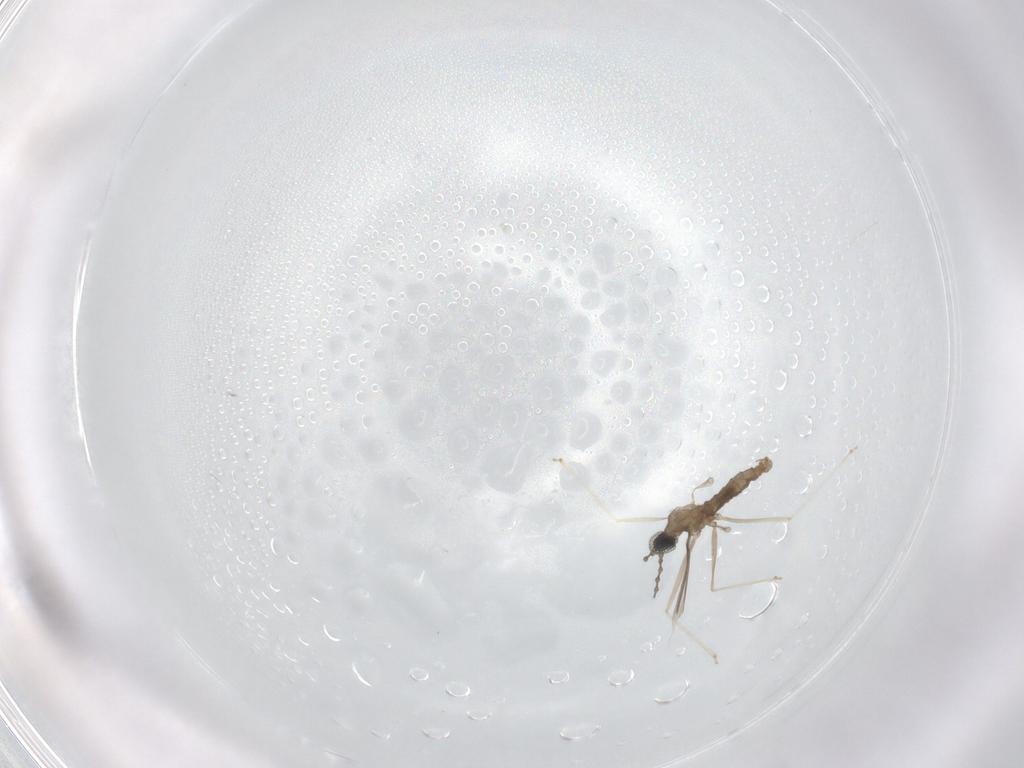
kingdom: Animalia
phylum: Arthropoda
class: Insecta
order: Diptera
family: Cecidomyiidae
